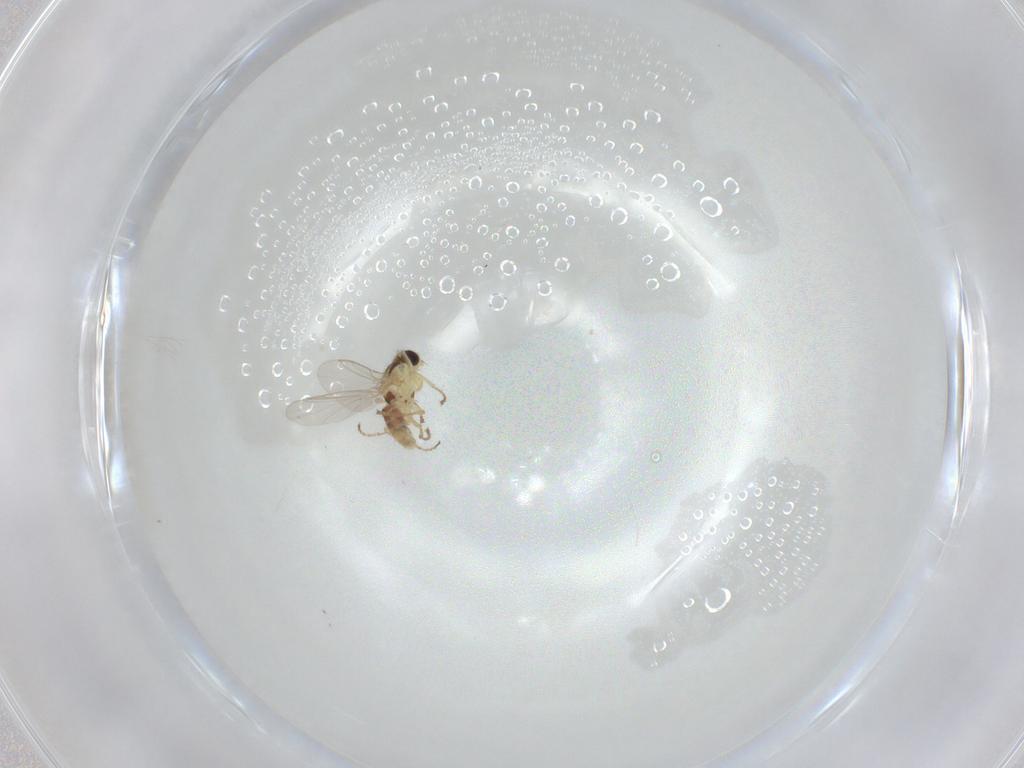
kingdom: Animalia
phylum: Arthropoda
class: Insecta
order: Diptera
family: Agromyzidae
